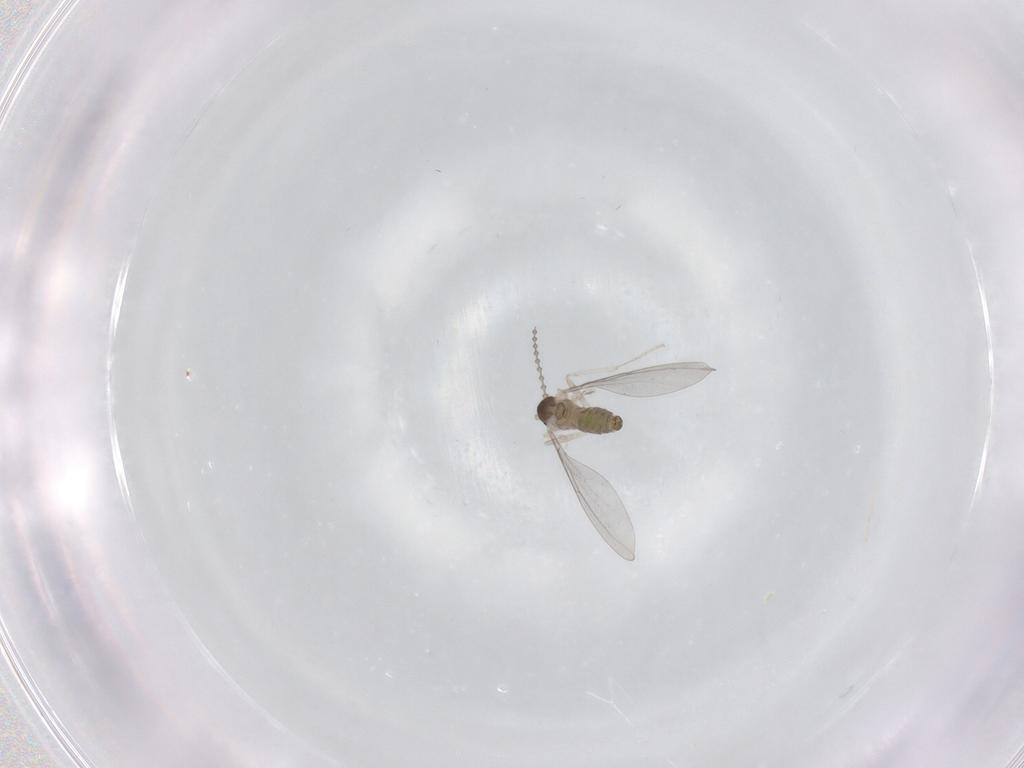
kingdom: Animalia
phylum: Arthropoda
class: Insecta
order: Diptera
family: Cecidomyiidae
